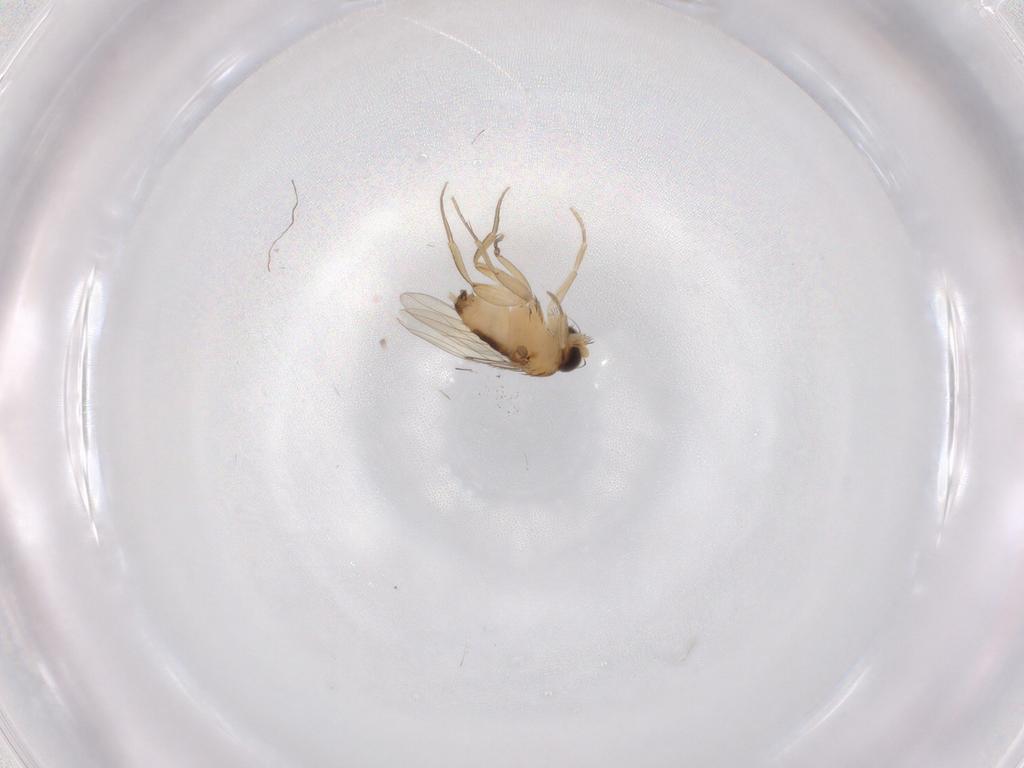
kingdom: Animalia
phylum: Arthropoda
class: Insecta
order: Diptera
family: Phoridae
